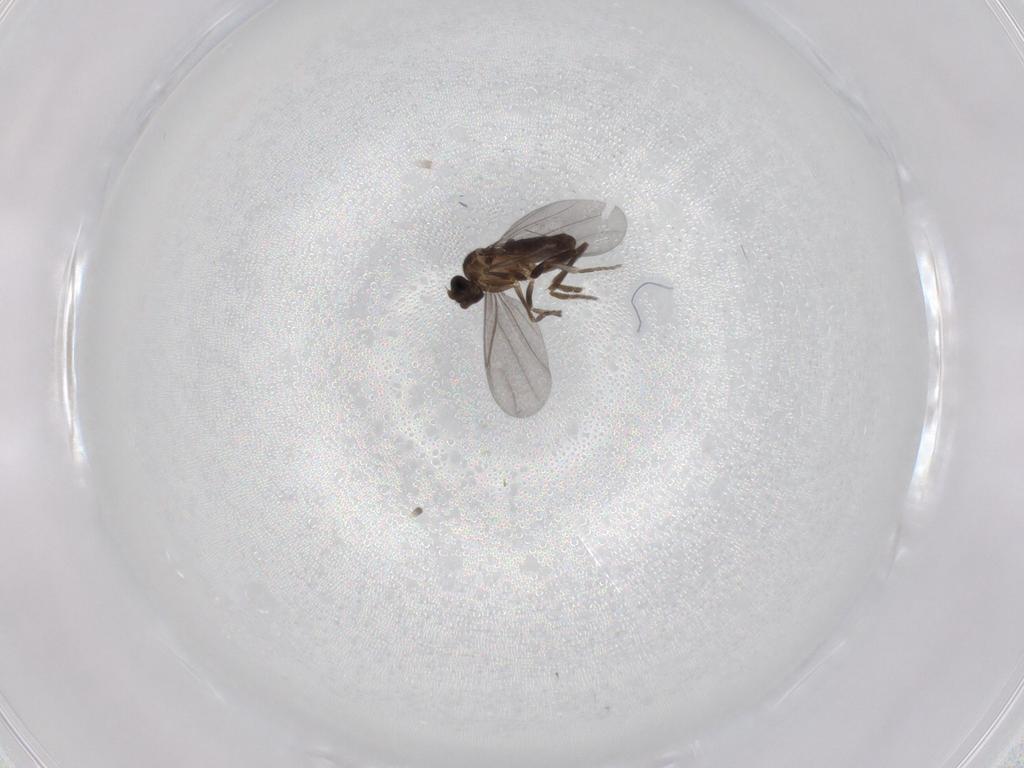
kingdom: Animalia
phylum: Arthropoda
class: Insecta
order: Diptera
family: Phoridae
